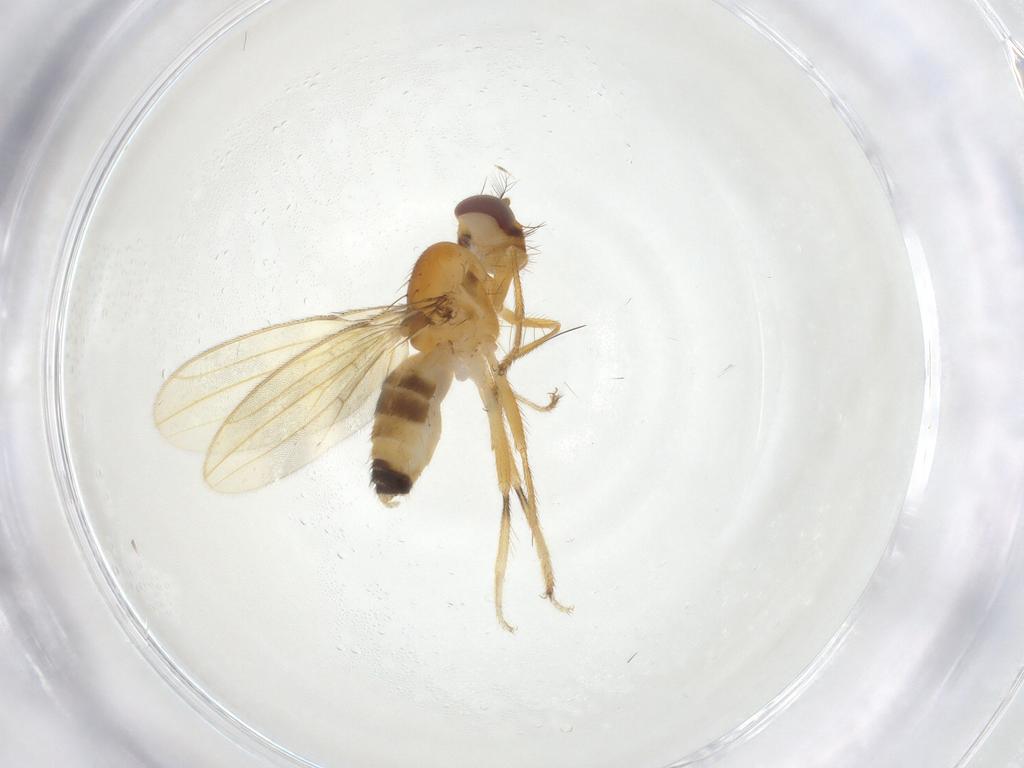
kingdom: Animalia
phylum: Arthropoda
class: Insecta
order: Diptera
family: Periscelididae
